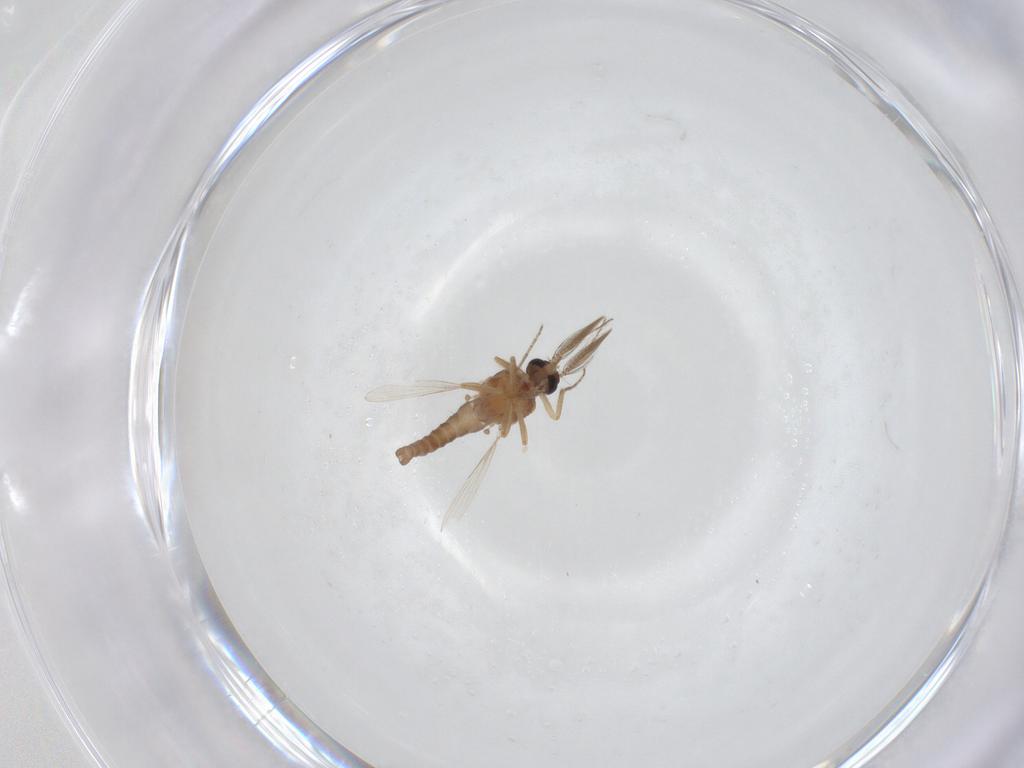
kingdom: Animalia
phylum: Arthropoda
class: Insecta
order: Diptera
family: Ceratopogonidae
